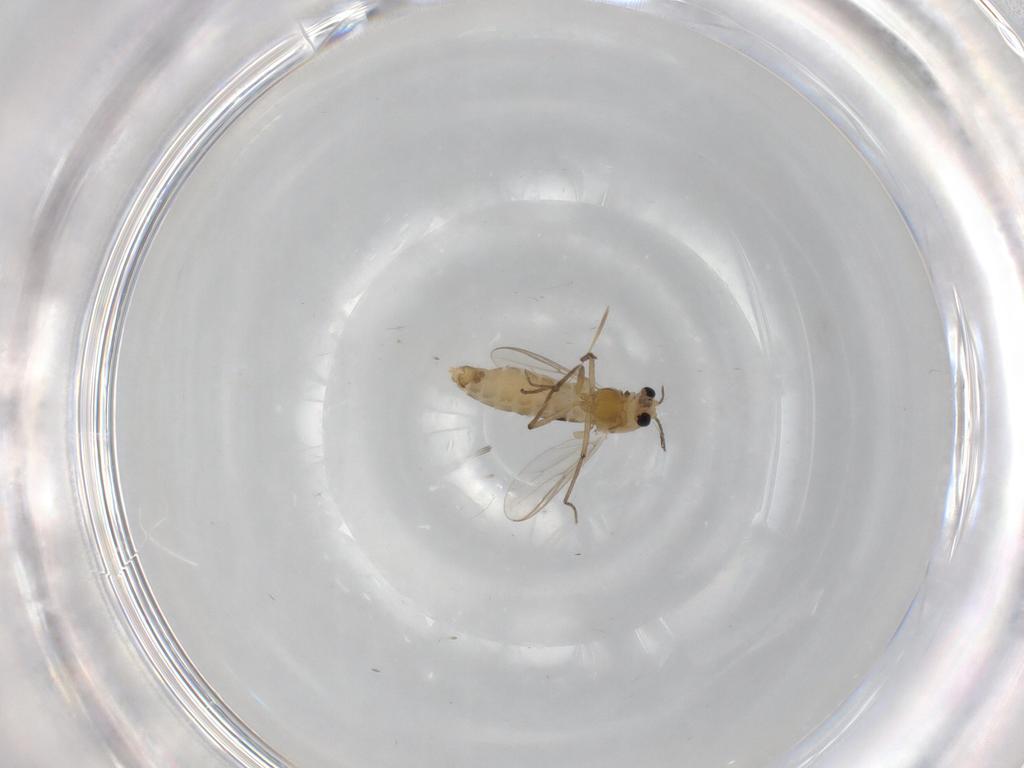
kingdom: Animalia
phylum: Arthropoda
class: Insecta
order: Diptera
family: Chironomidae
